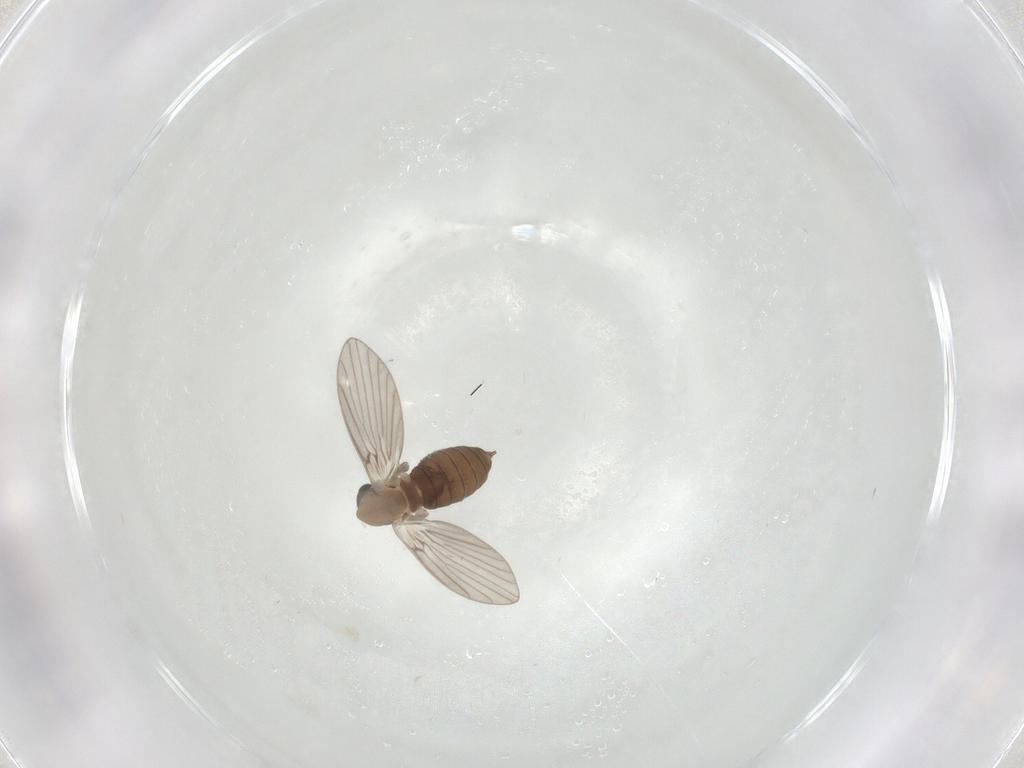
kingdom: Animalia
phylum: Arthropoda
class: Insecta
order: Diptera
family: Psychodidae
